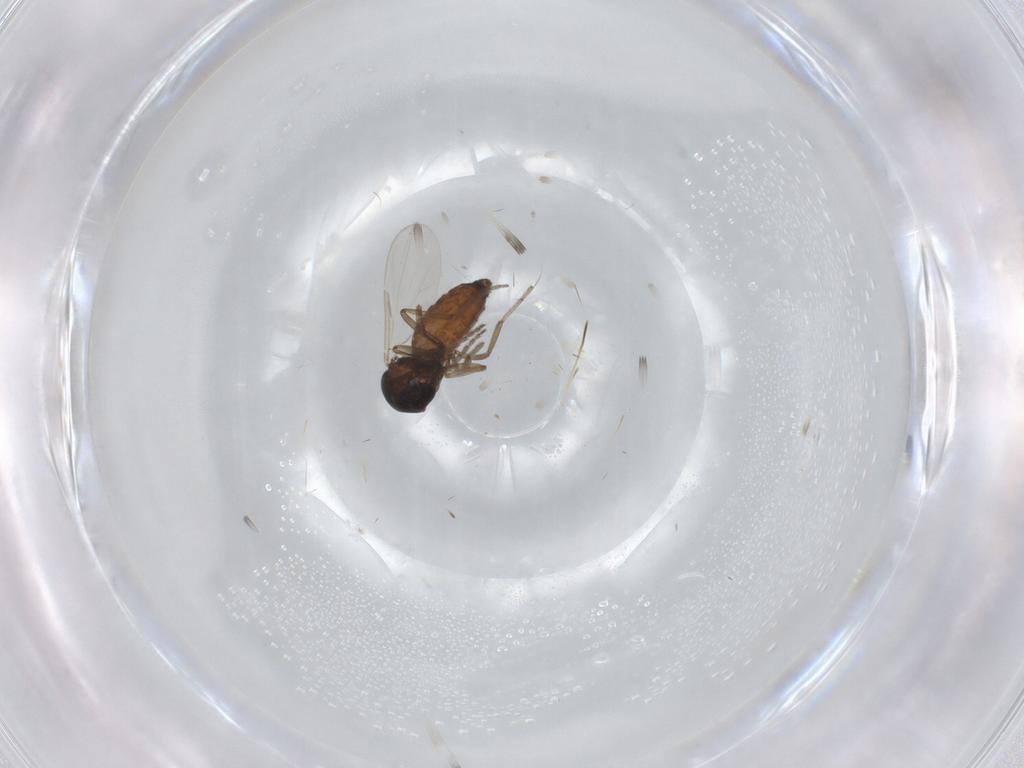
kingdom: Animalia
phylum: Arthropoda
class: Insecta
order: Diptera
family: Ceratopogonidae
